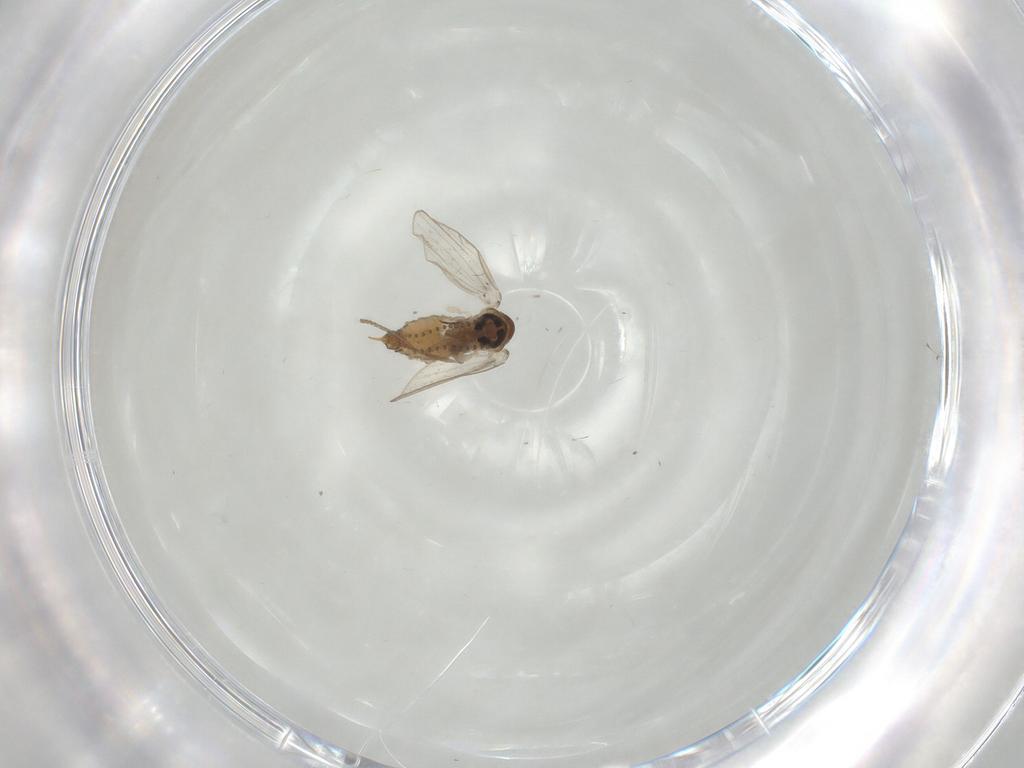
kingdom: Animalia
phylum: Arthropoda
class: Insecta
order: Diptera
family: Psychodidae
